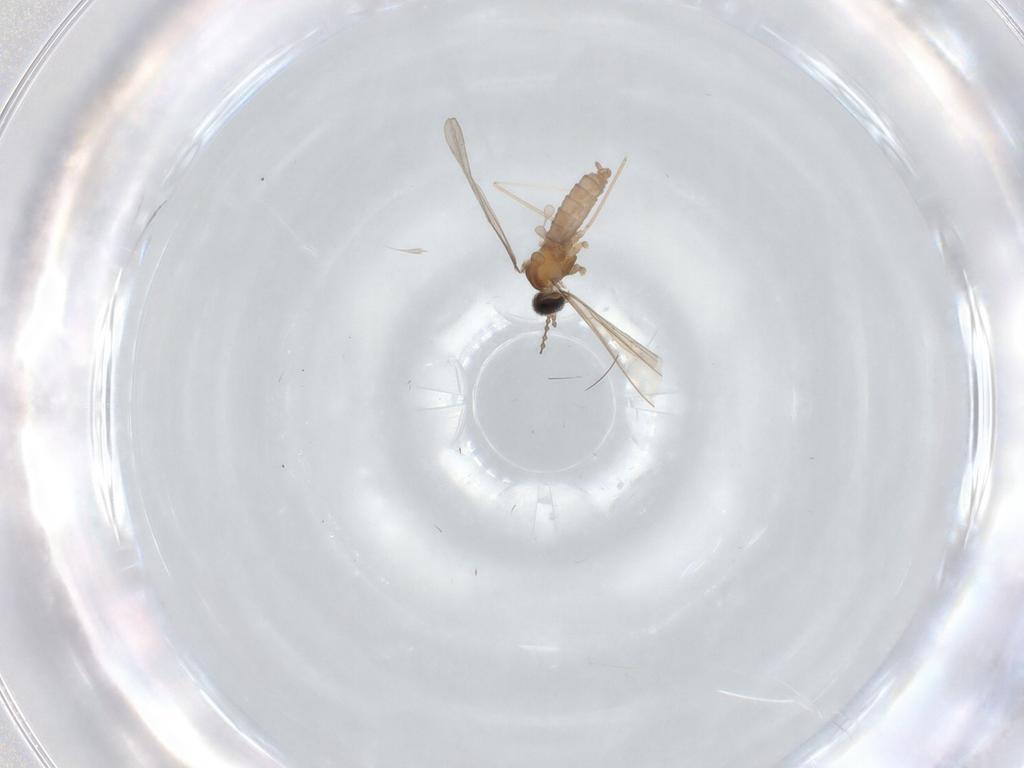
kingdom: Animalia
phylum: Arthropoda
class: Insecta
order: Diptera
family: Cecidomyiidae
